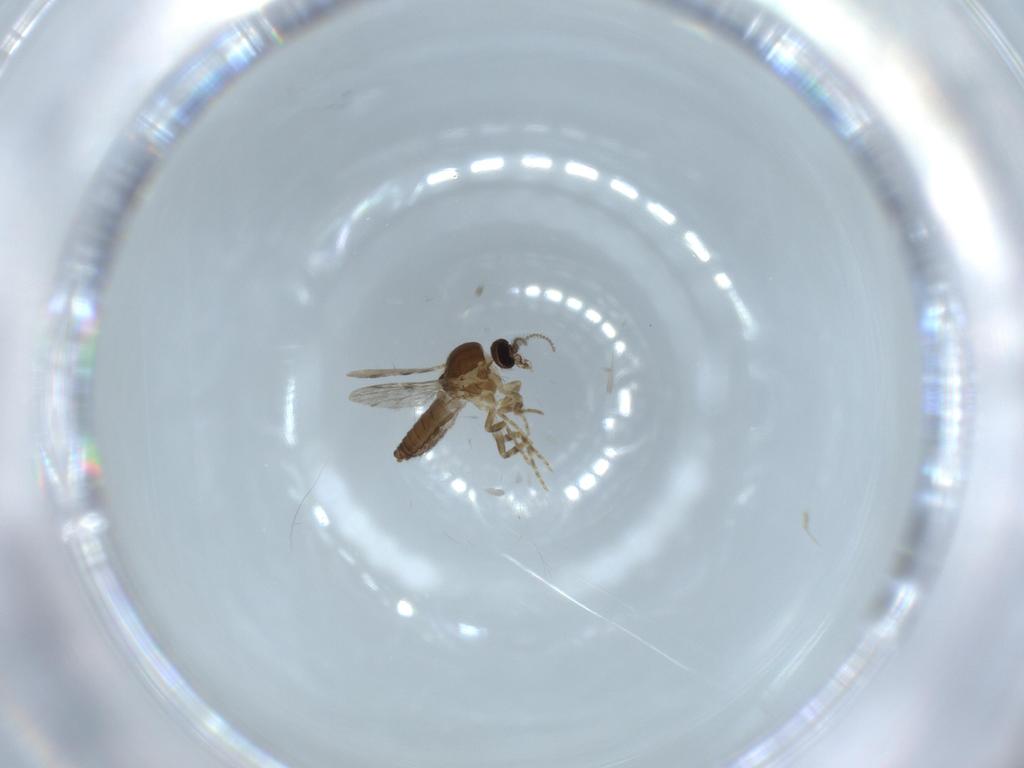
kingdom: Animalia
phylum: Arthropoda
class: Insecta
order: Diptera
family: Ceratopogonidae
